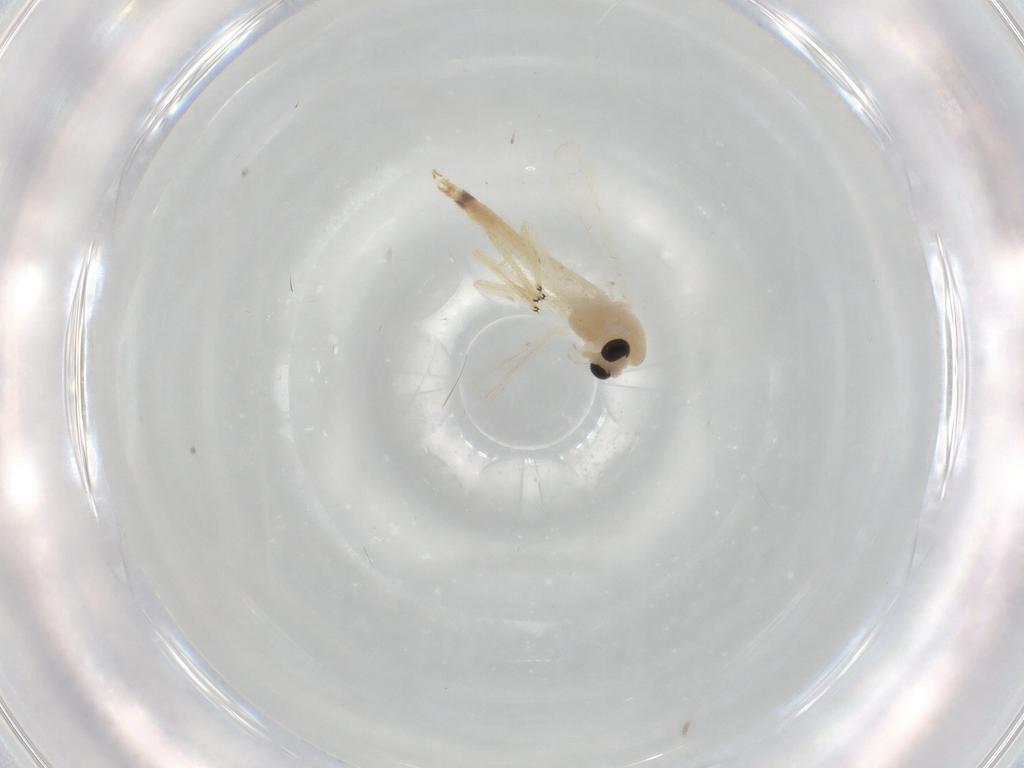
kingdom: Animalia
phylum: Arthropoda
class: Insecta
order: Diptera
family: Chironomidae
